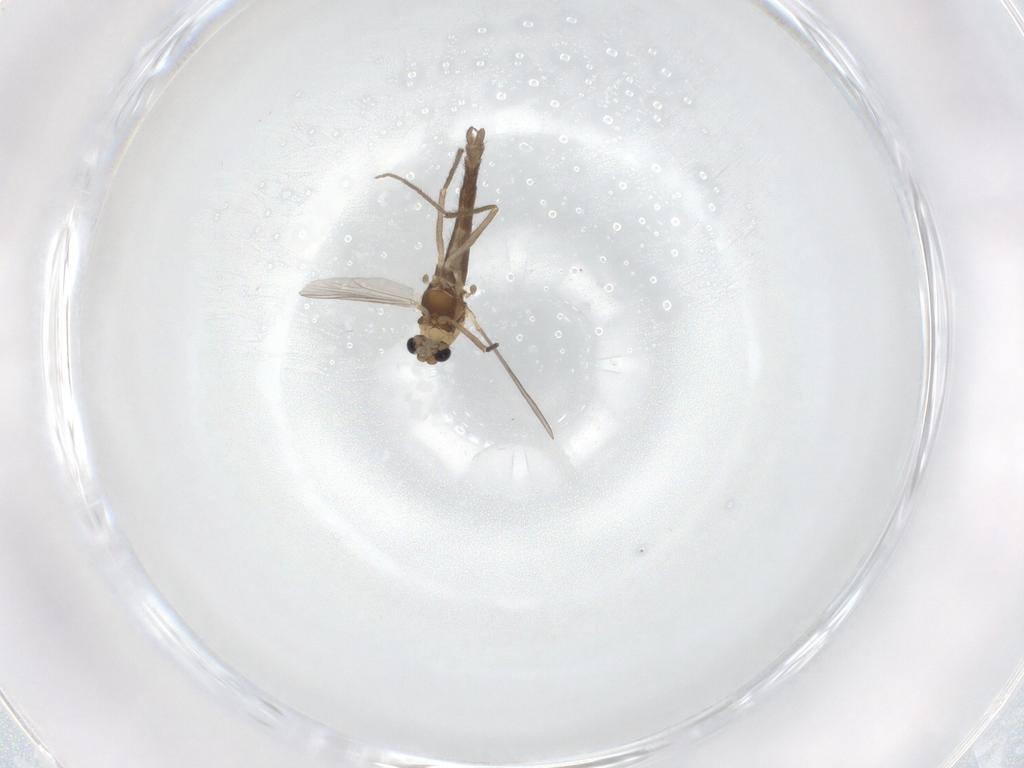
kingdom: Animalia
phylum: Arthropoda
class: Insecta
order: Diptera
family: Chironomidae
